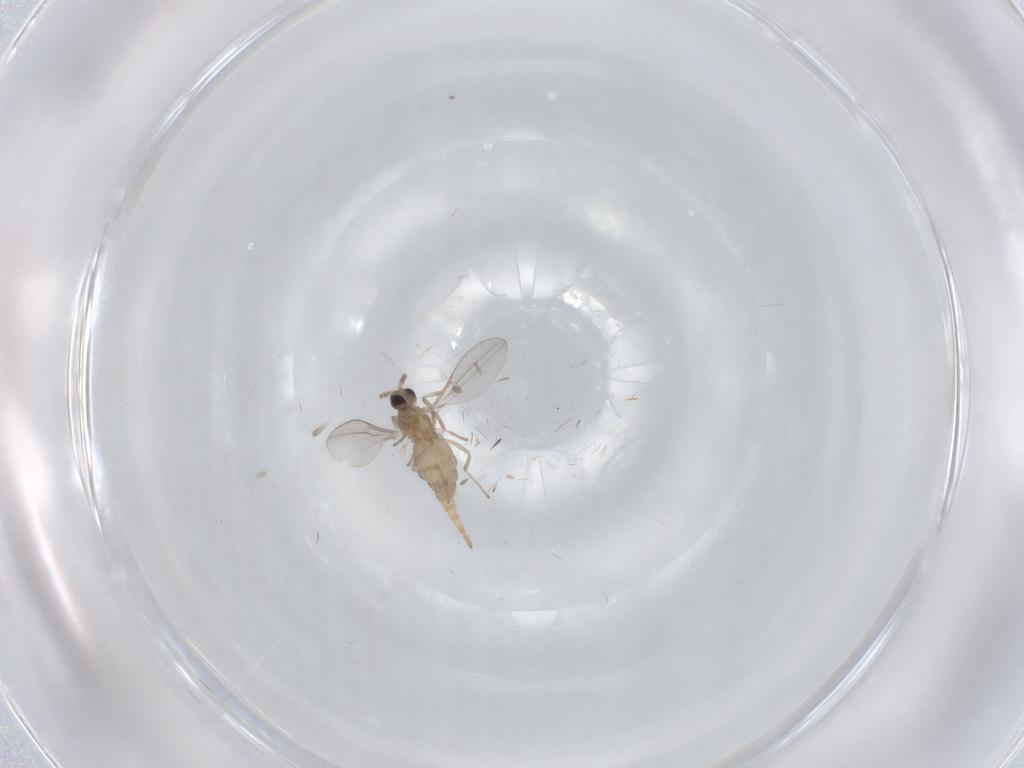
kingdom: Animalia
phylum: Arthropoda
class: Insecta
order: Diptera
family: Cecidomyiidae
